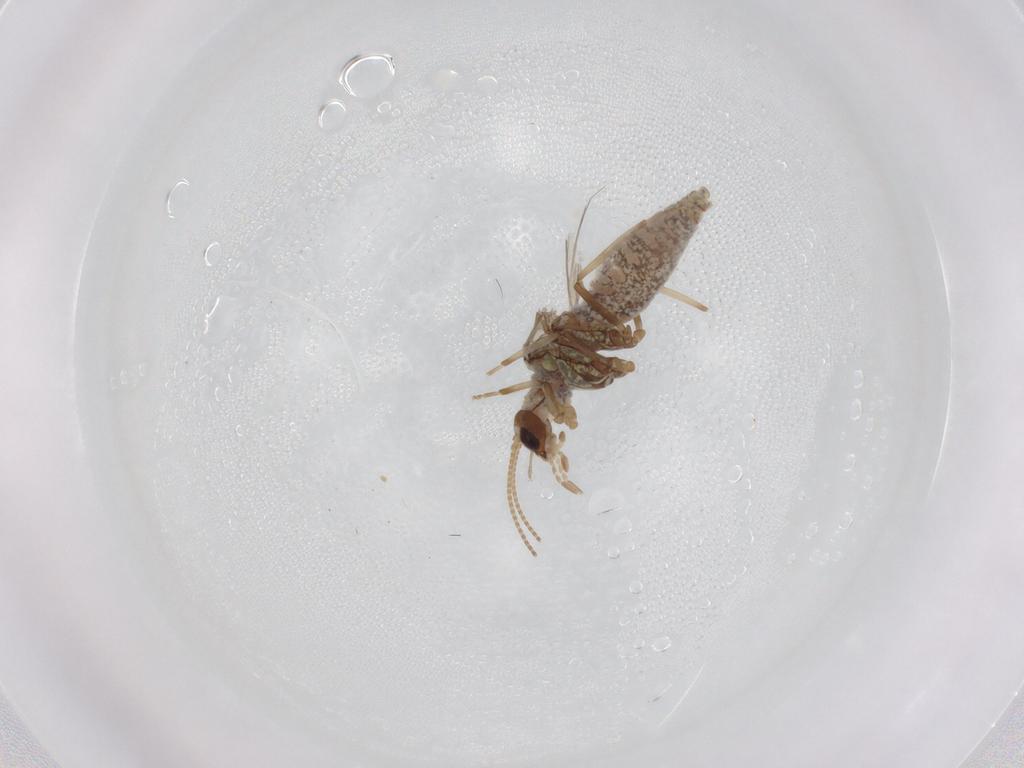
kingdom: Animalia
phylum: Arthropoda
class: Insecta
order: Neuroptera
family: Coniopterygidae
